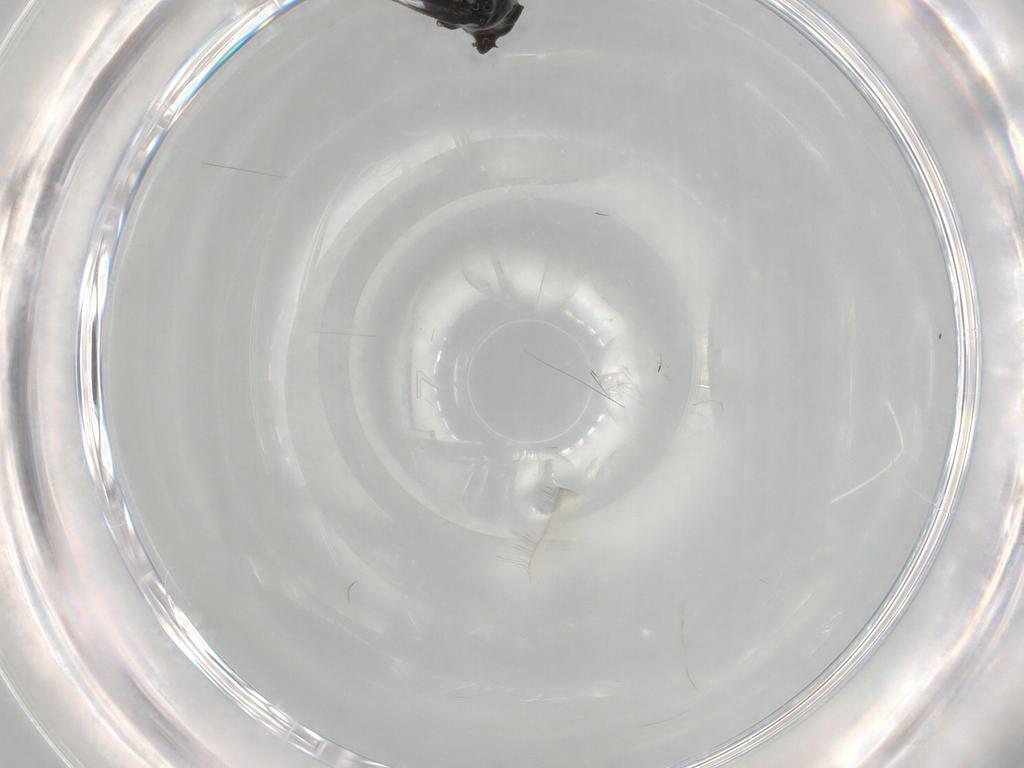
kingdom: Animalia
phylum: Arthropoda
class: Insecta
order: Diptera
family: Chironomidae
